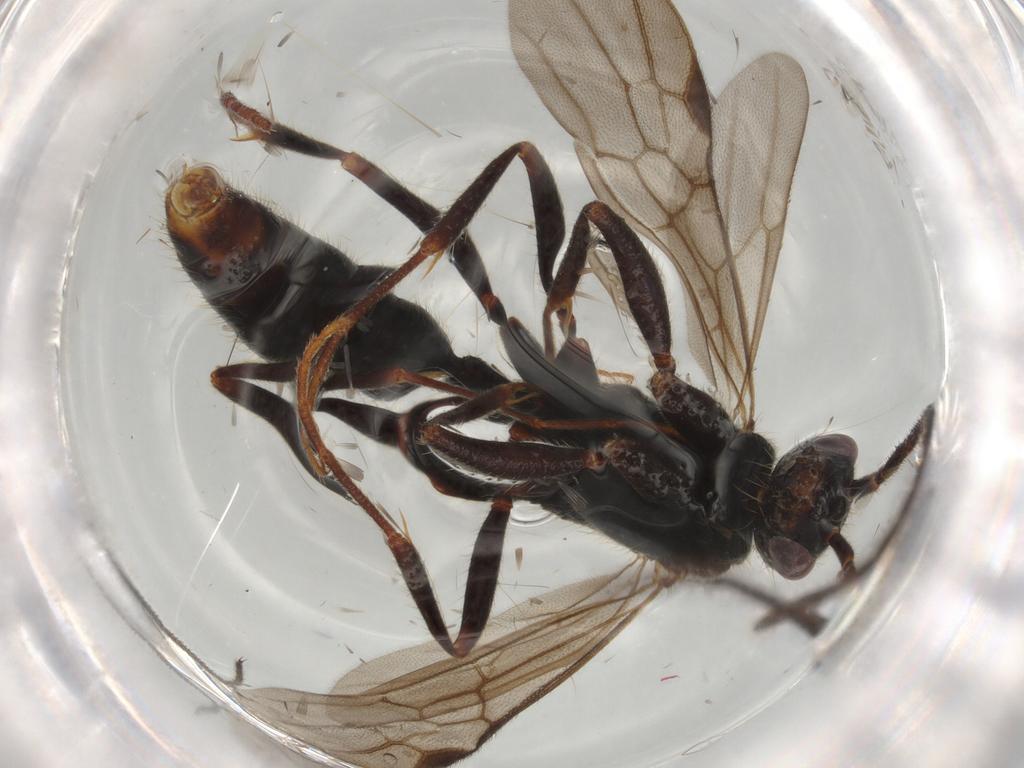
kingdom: Animalia
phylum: Arthropoda
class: Insecta
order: Hymenoptera
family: Formicidae
